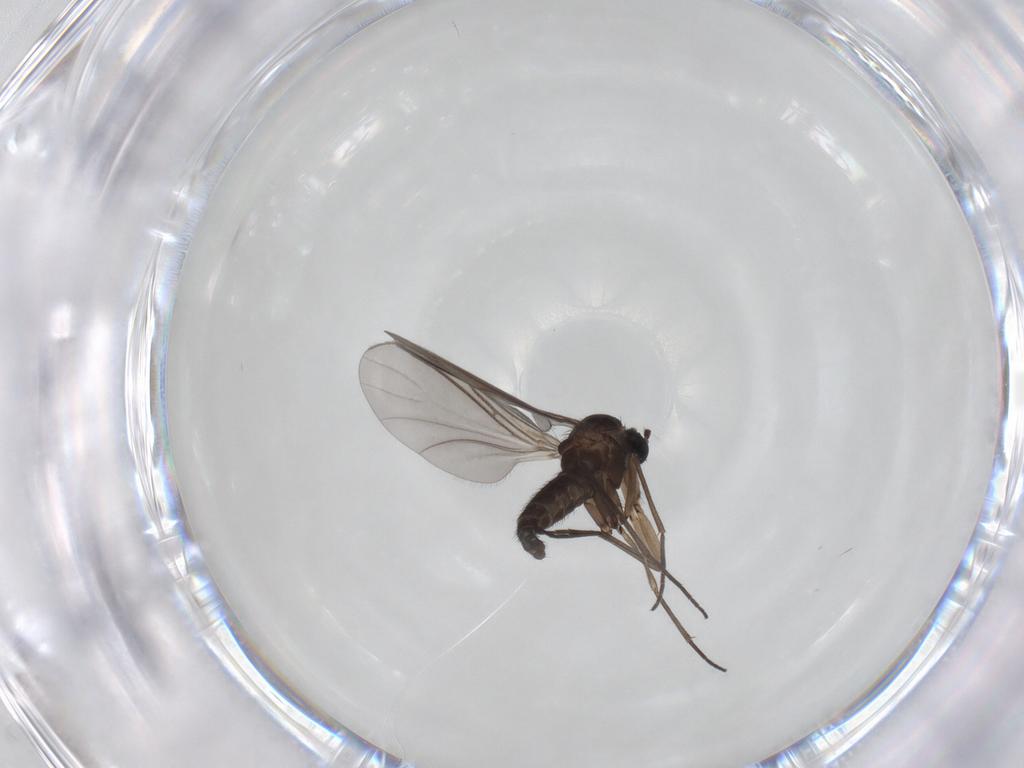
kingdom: Animalia
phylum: Arthropoda
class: Insecta
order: Diptera
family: Sciaridae
